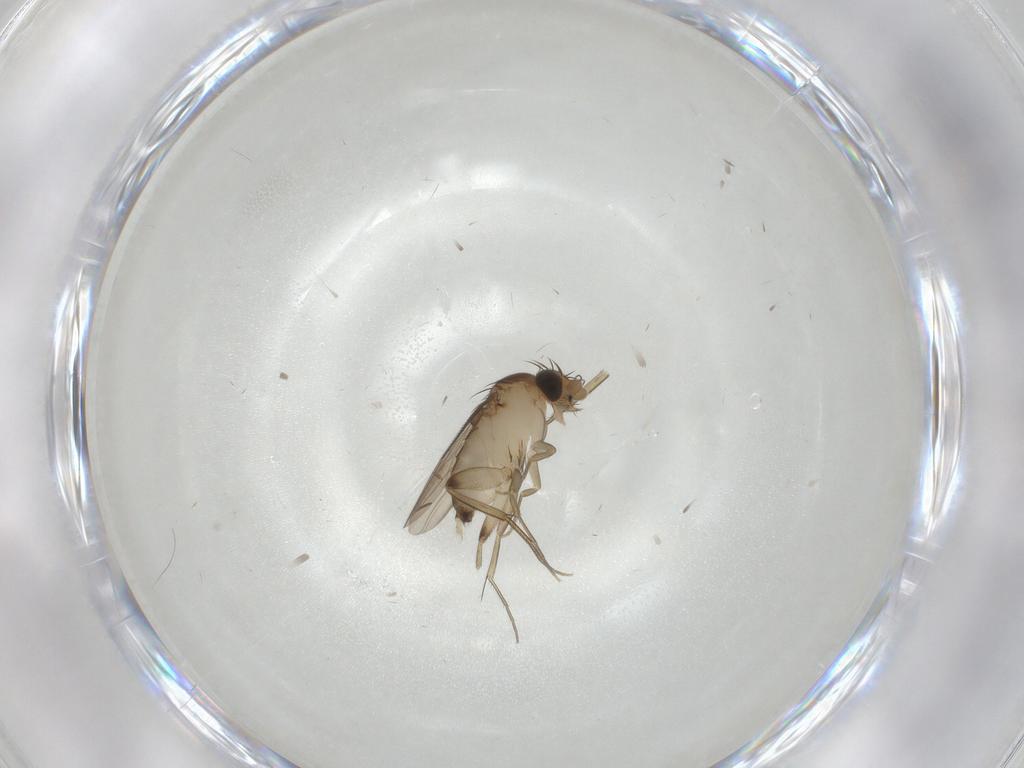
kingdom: Animalia
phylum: Arthropoda
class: Insecta
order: Diptera
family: Phoridae
